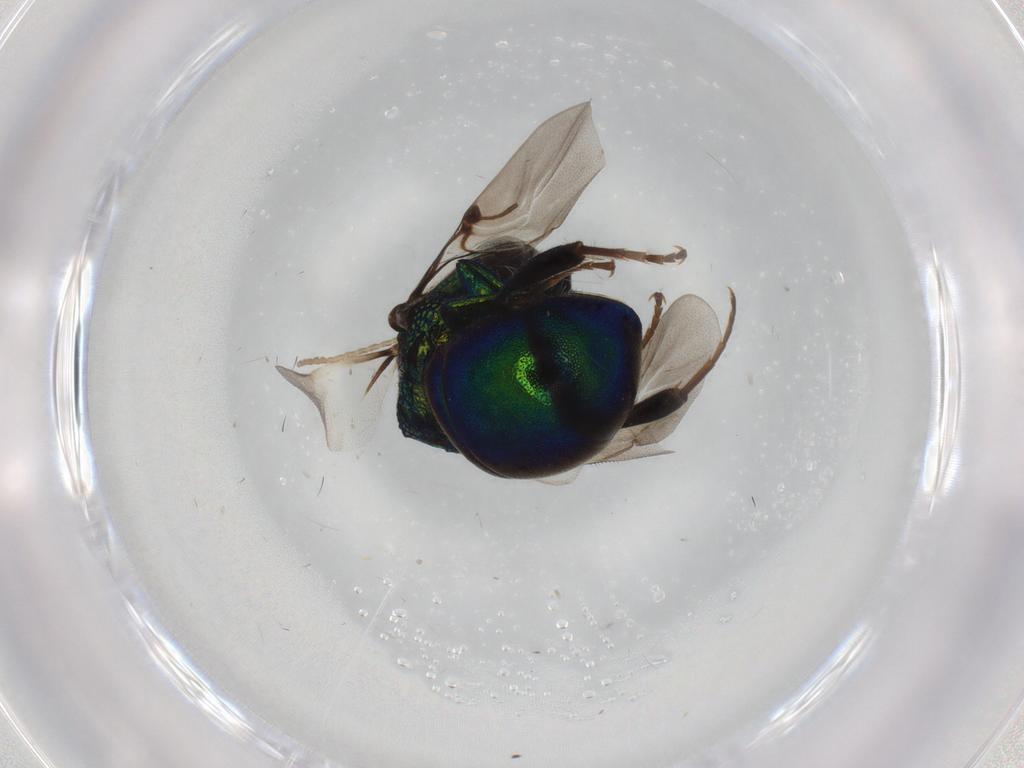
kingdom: Animalia
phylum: Arthropoda
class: Insecta
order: Hymenoptera
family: Chrysididae
